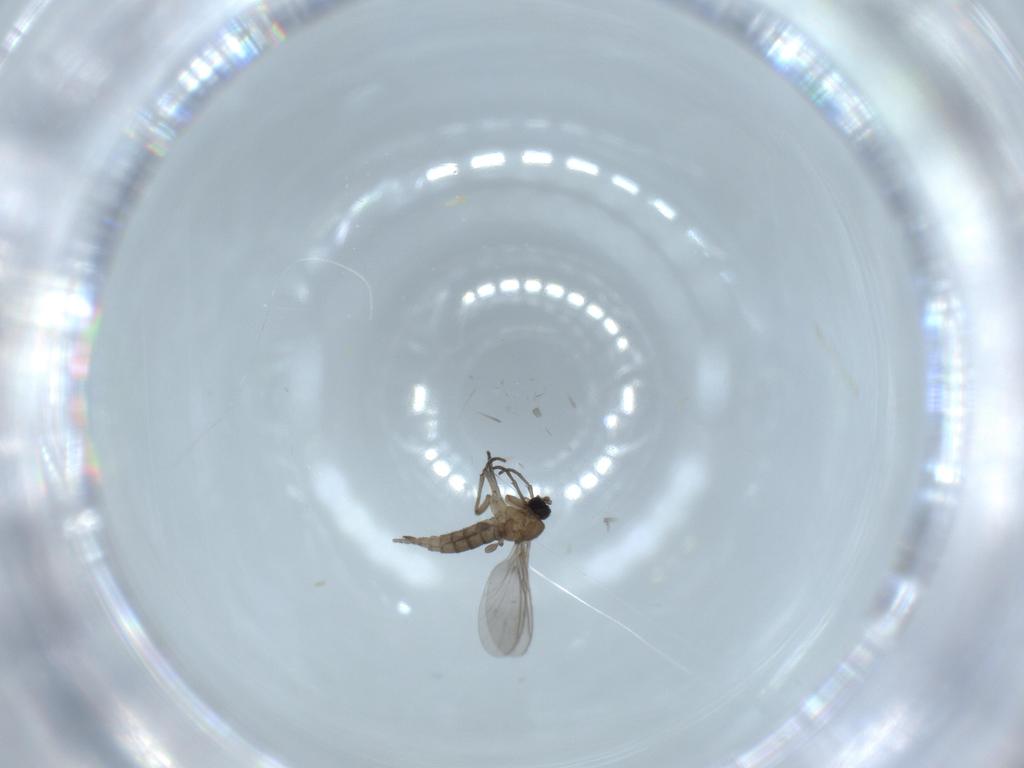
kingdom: Animalia
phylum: Arthropoda
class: Insecta
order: Diptera
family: Sciaridae
